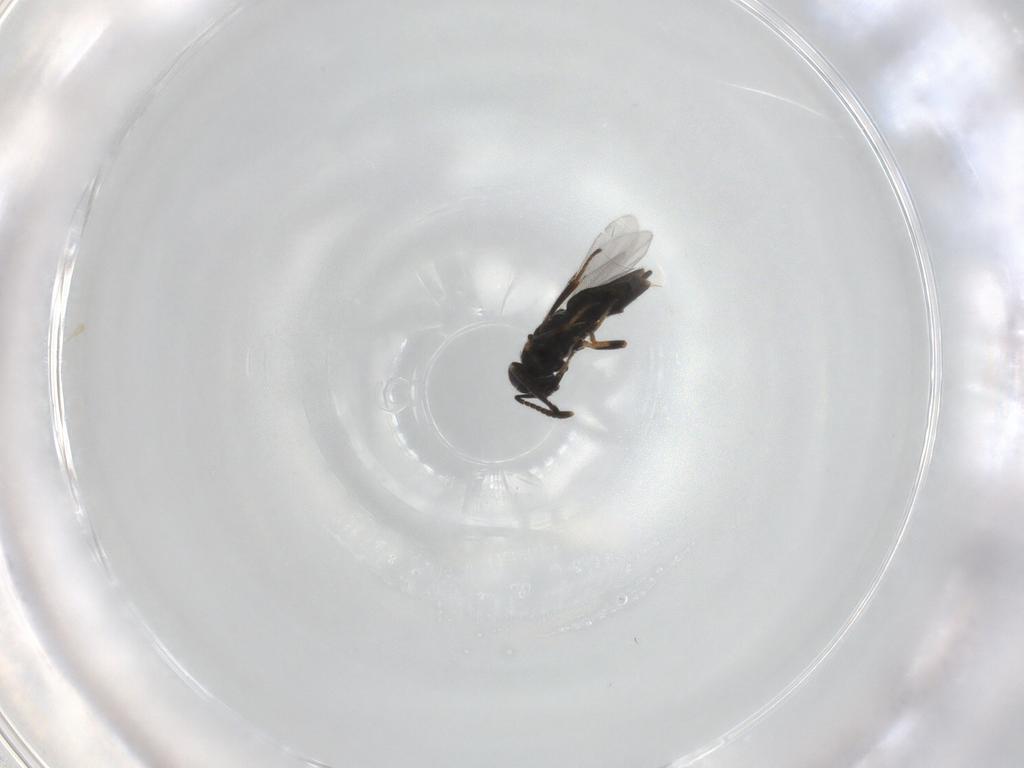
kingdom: Animalia
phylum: Arthropoda
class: Insecta
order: Diptera
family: Muscidae
